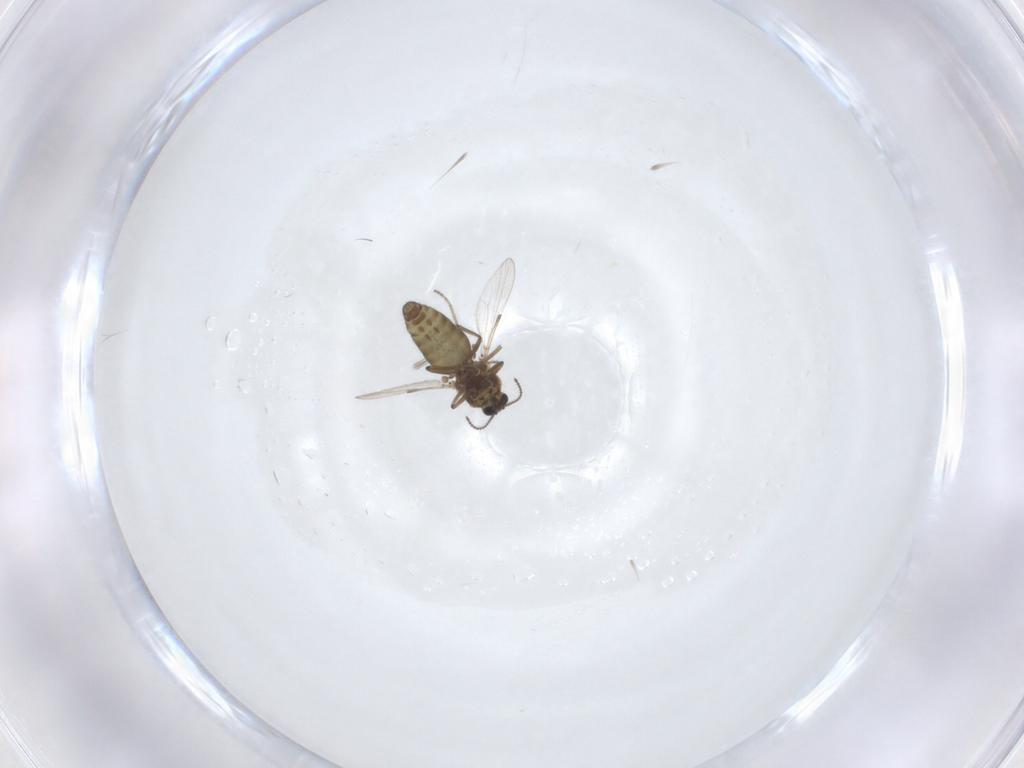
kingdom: Animalia
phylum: Arthropoda
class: Insecta
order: Diptera
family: Ceratopogonidae
